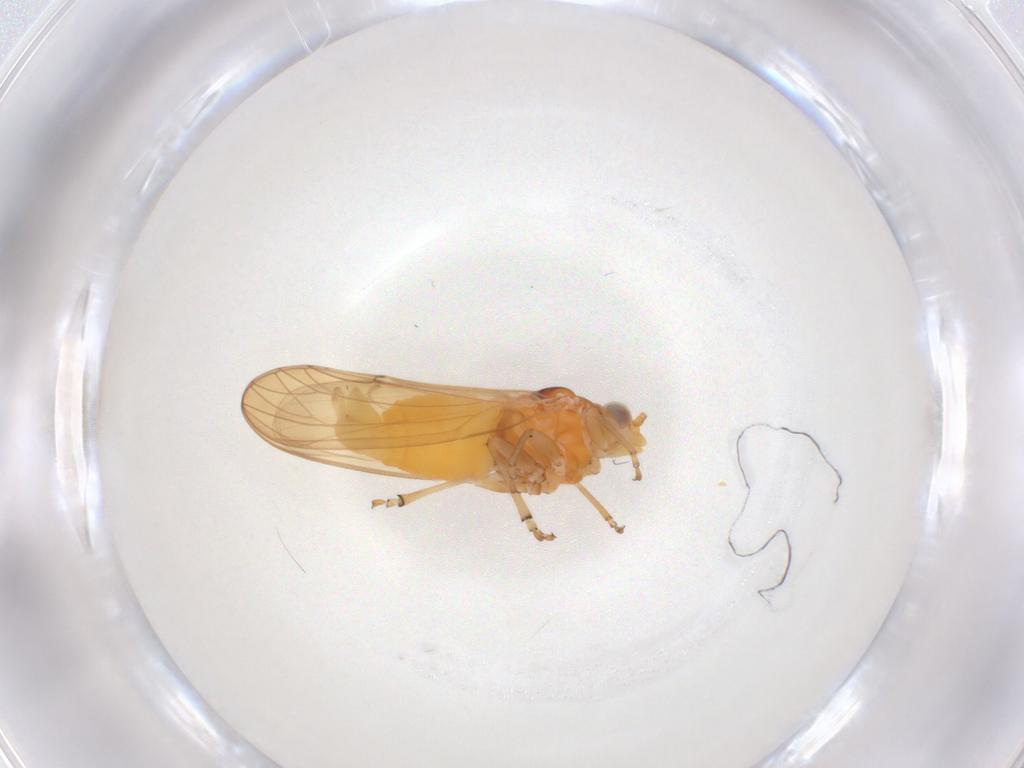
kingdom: Animalia
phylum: Arthropoda
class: Insecta
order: Hemiptera
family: Psylloidea_incertae_sedis
